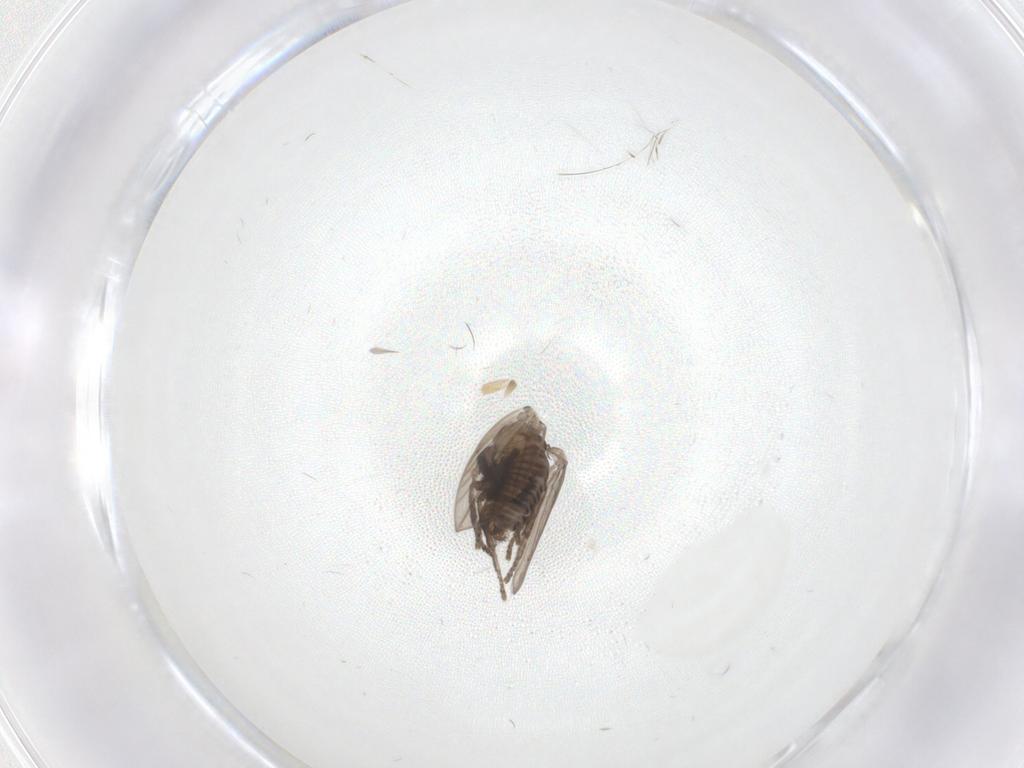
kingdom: Animalia
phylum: Arthropoda
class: Insecta
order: Diptera
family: Psychodidae
